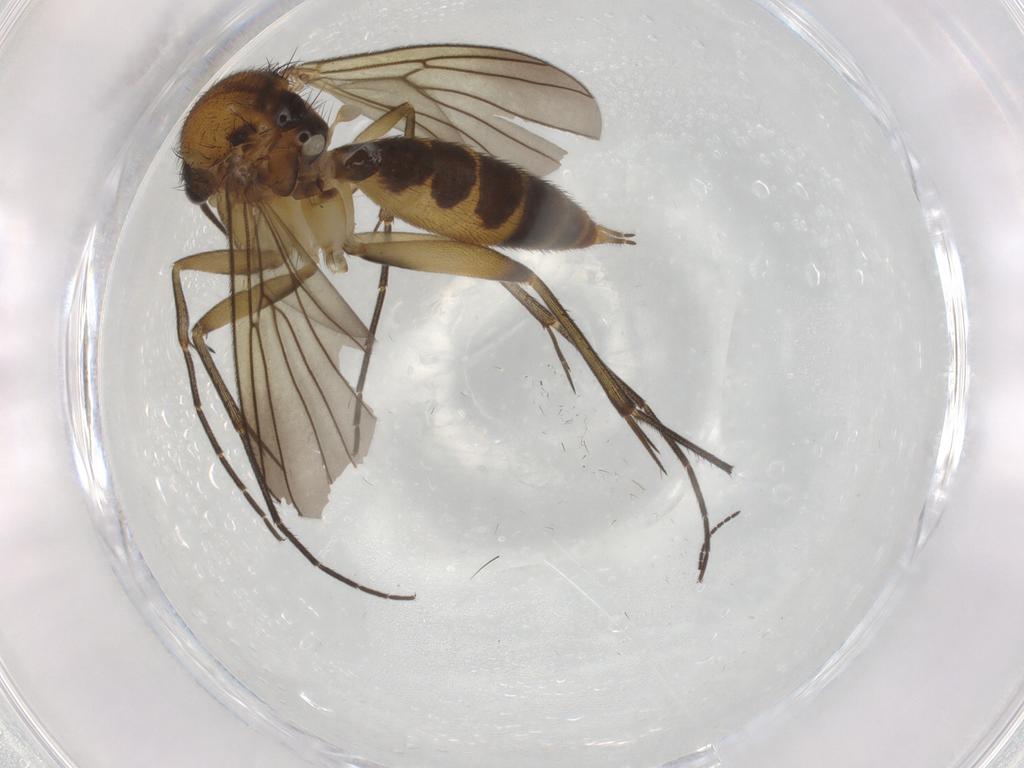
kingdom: Animalia
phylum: Arthropoda
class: Insecta
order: Diptera
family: Mycetophilidae
